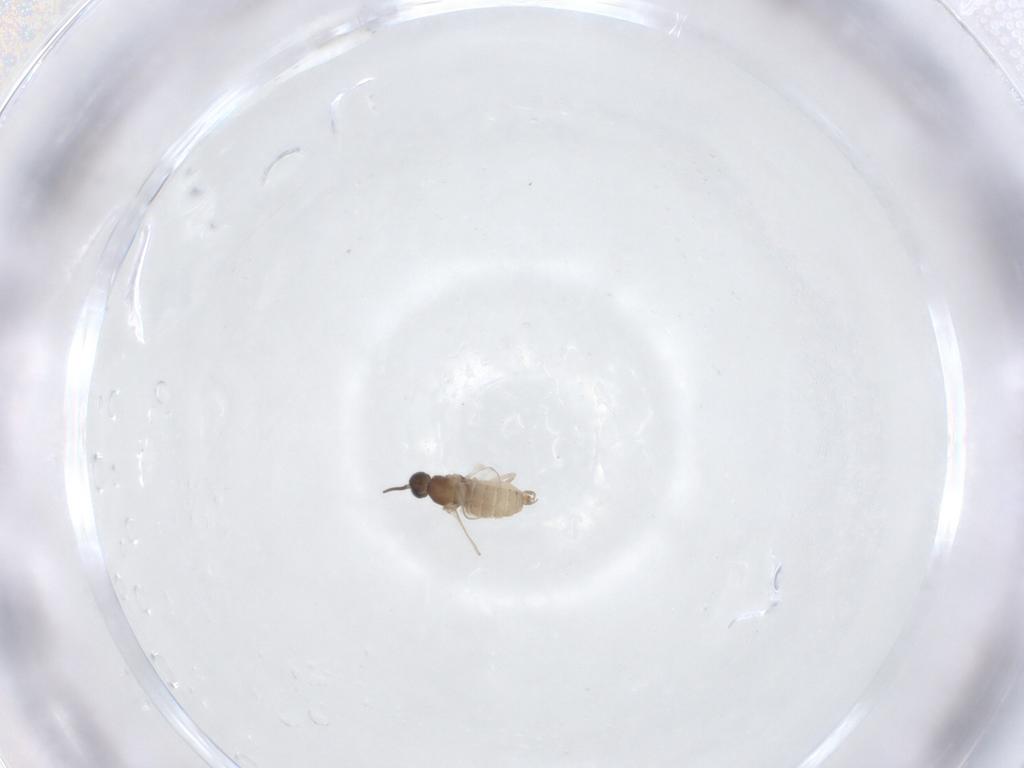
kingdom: Animalia
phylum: Arthropoda
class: Insecta
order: Diptera
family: Cecidomyiidae
